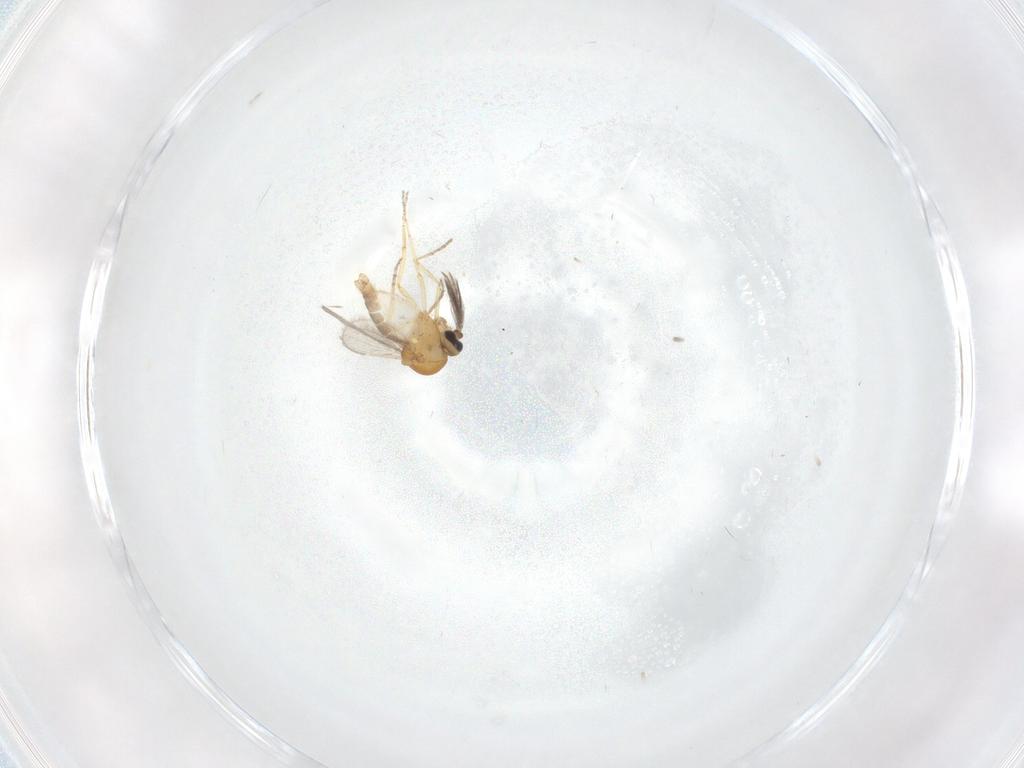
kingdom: Animalia
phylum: Arthropoda
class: Insecta
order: Diptera
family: Ceratopogonidae
